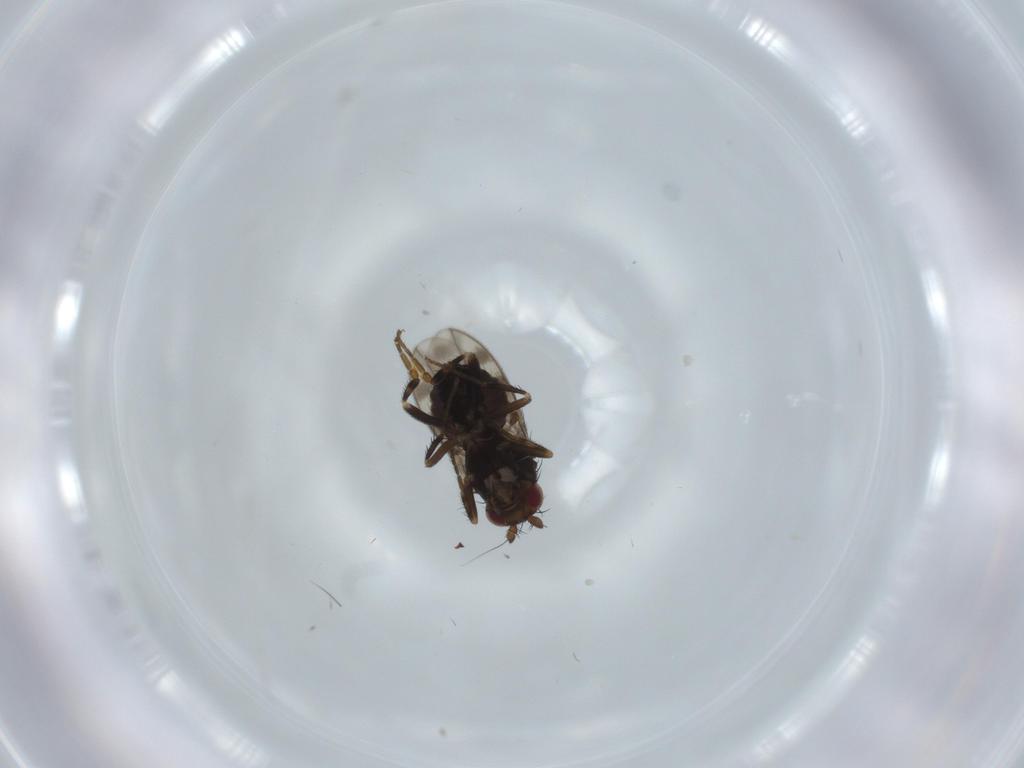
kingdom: Animalia
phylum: Arthropoda
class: Insecta
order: Diptera
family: Sphaeroceridae
